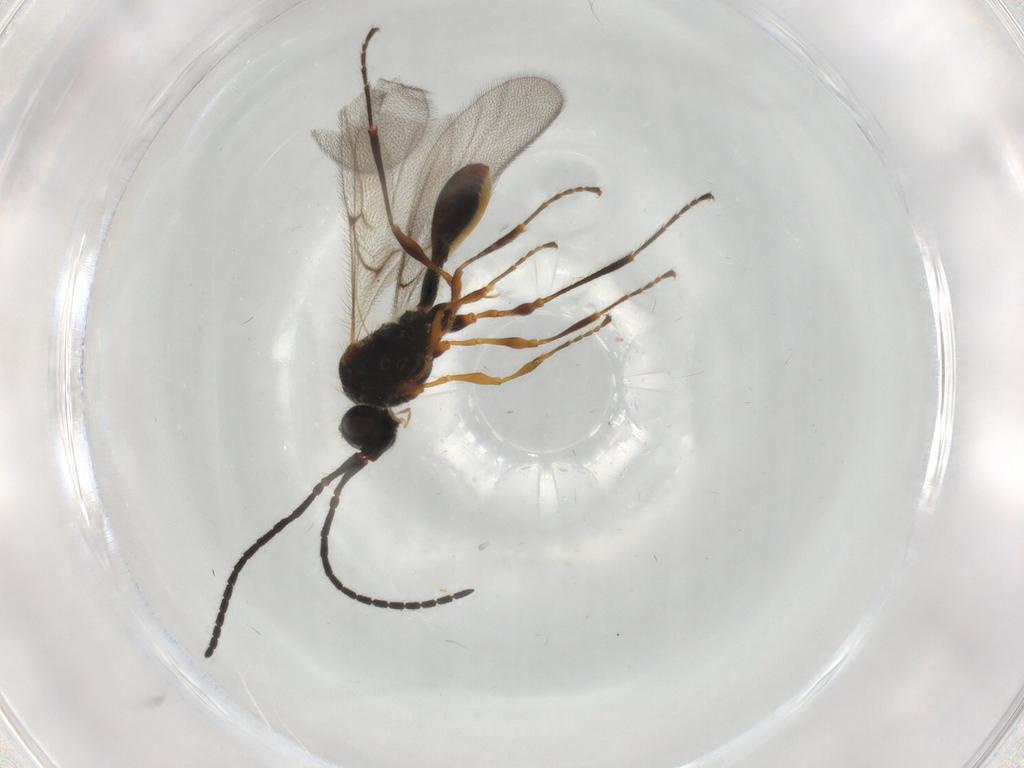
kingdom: Animalia
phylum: Arthropoda
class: Insecta
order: Hymenoptera
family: Diapriidae
